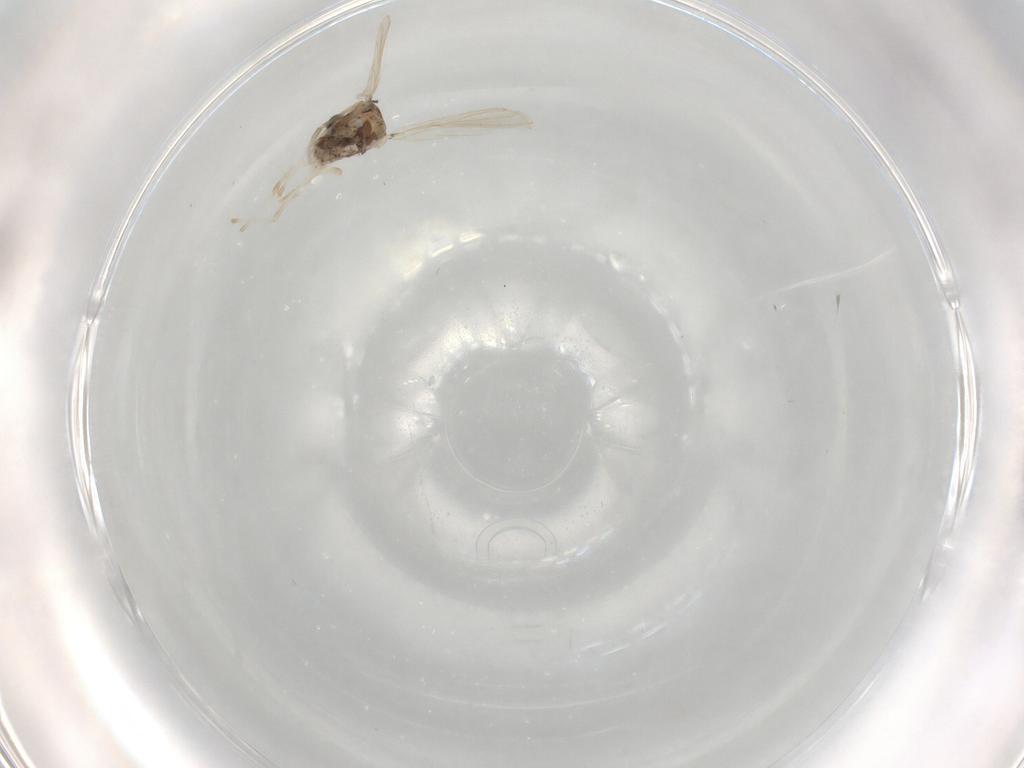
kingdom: Animalia
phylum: Arthropoda
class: Insecta
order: Diptera
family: Chironomidae
